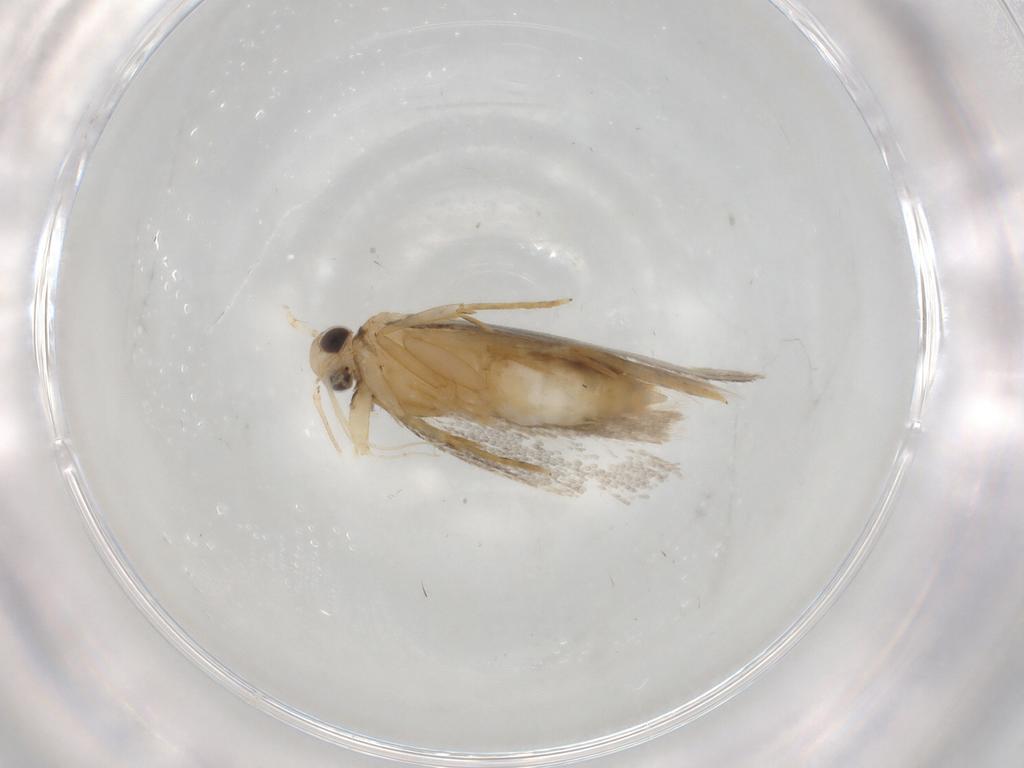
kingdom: Animalia
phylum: Arthropoda
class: Insecta
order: Lepidoptera
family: Autostichidae
